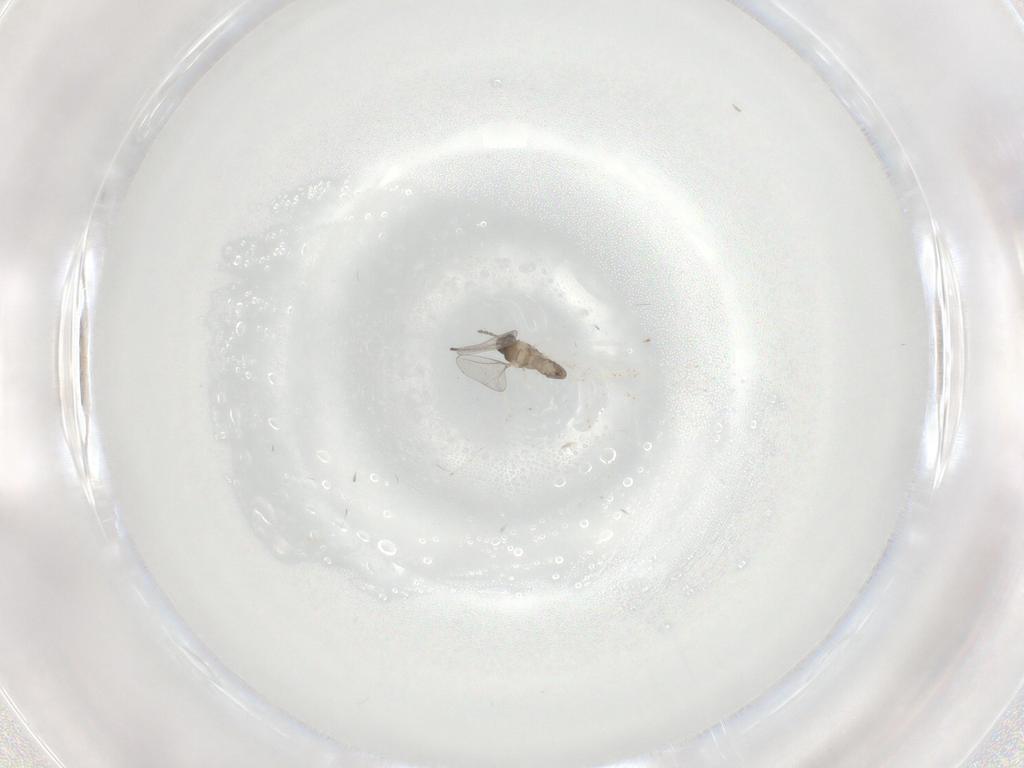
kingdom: Animalia
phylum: Arthropoda
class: Insecta
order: Diptera
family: Cecidomyiidae
